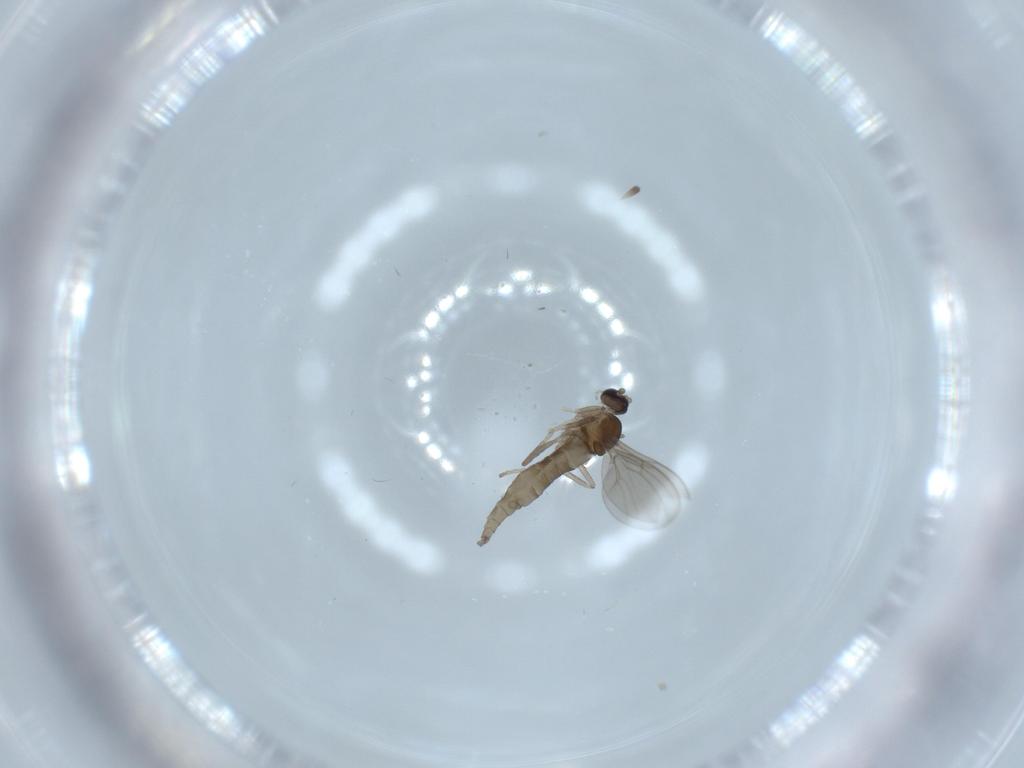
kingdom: Animalia
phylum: Arthropoda
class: Insecta
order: Diptera
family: Cecidomyiidae
